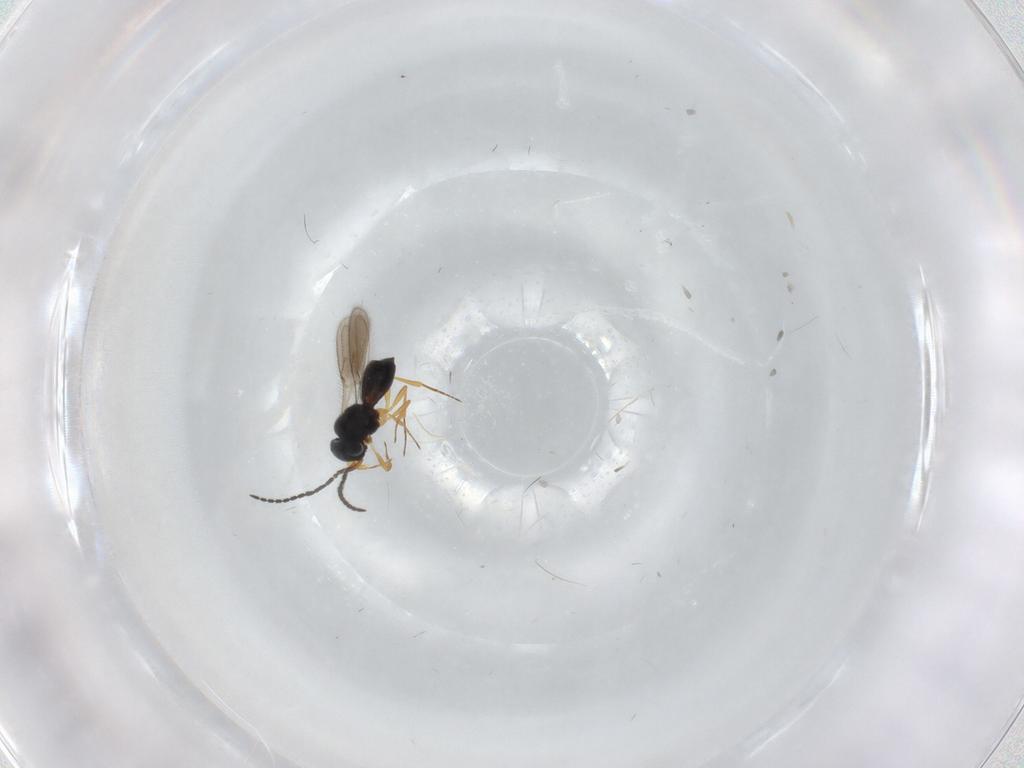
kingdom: Animalia
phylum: Arthropoda
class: Insecta
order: Hymenoptera
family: Scelionidae
